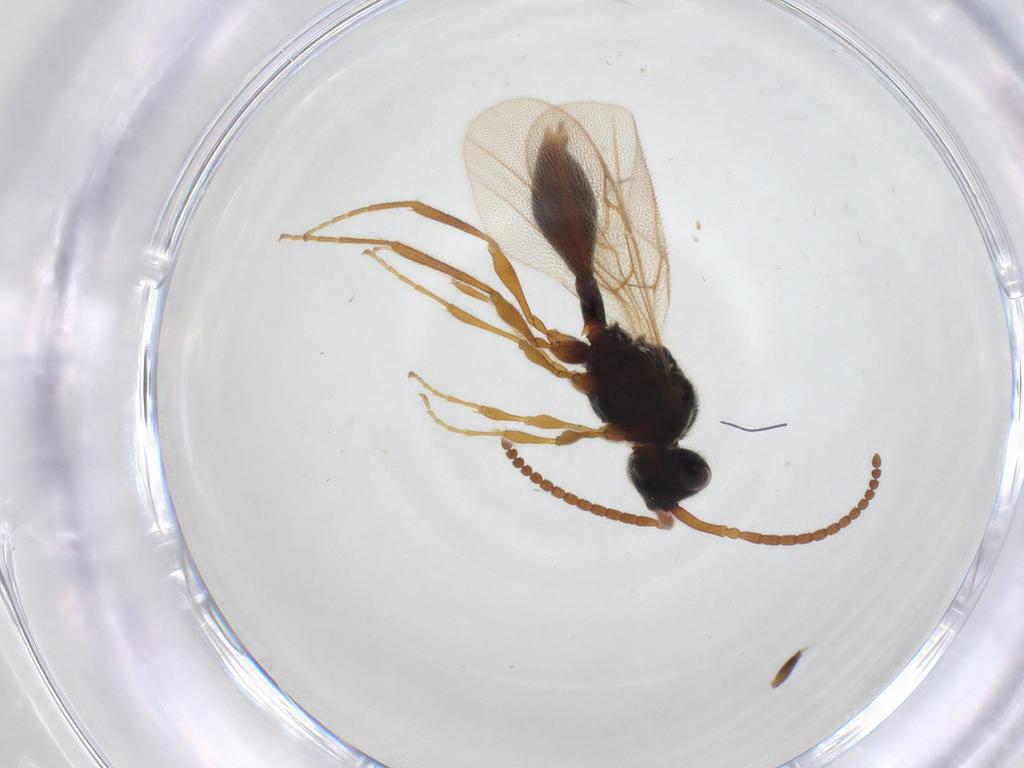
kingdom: Animalia
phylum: Arthropoda
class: Insecta
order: Hymenoptera
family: Diapriidae
